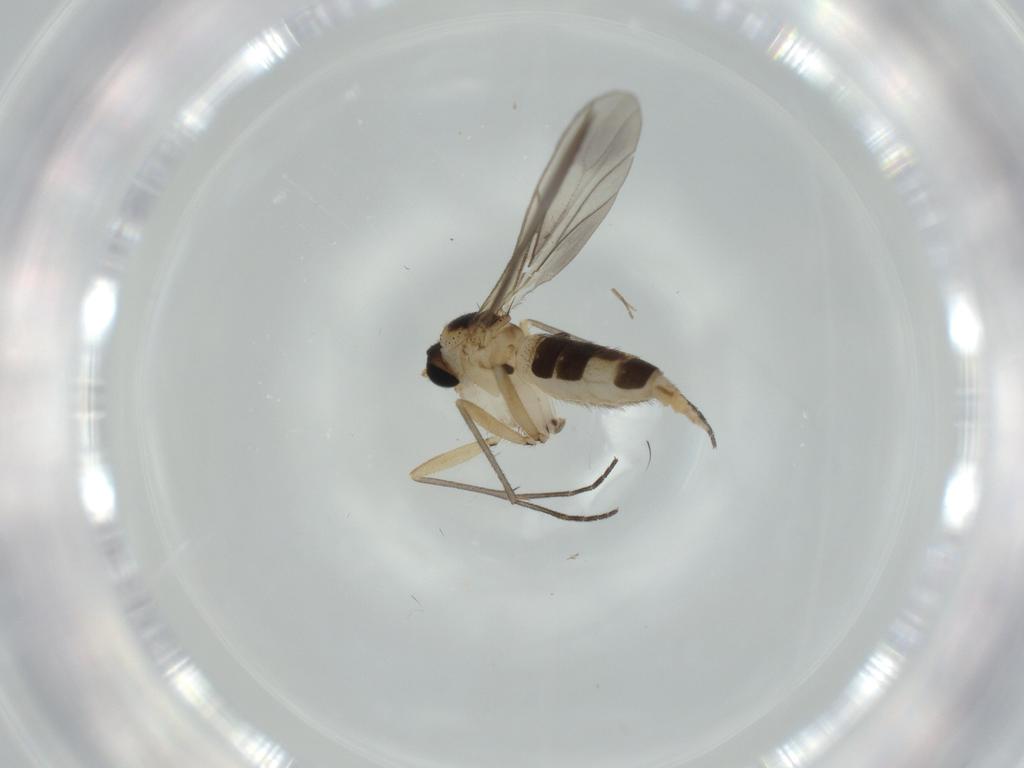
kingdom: Animalia
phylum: Arthropoda
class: Insecta
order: Diptera
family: Sciaridae
